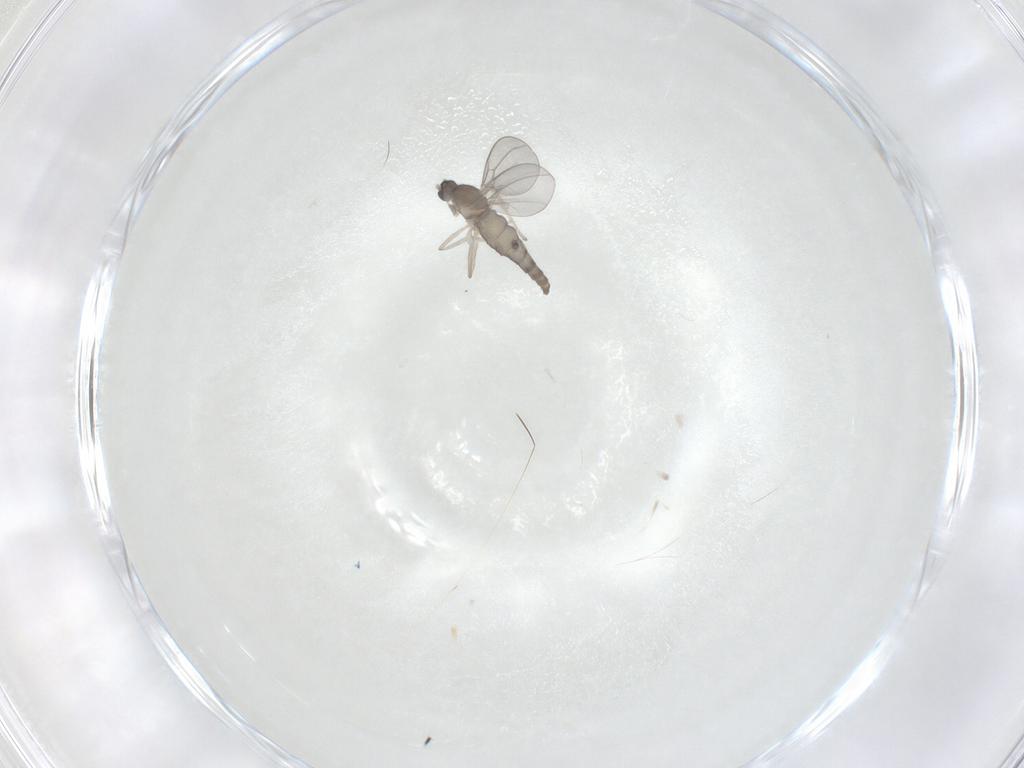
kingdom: Animalia
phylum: Arthropoda
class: Insecta
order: Diptera
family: Cecidomyiidae
